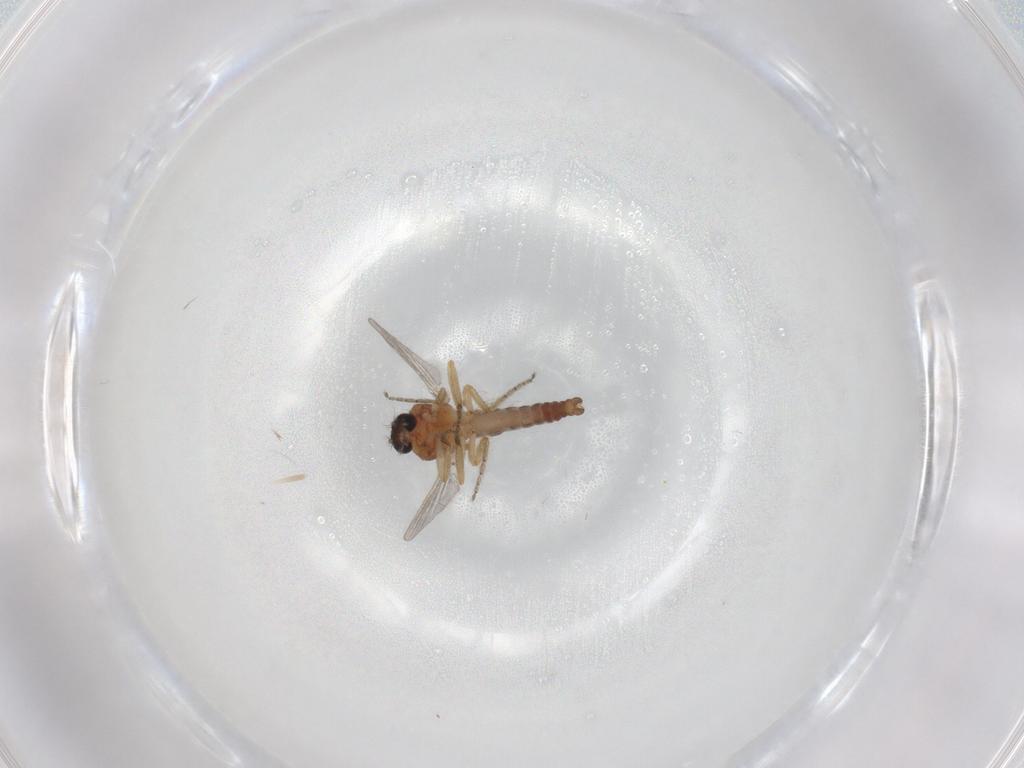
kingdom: Animalia
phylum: Arthropoda
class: Insecta
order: Diptera
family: Ceratopogonidae
